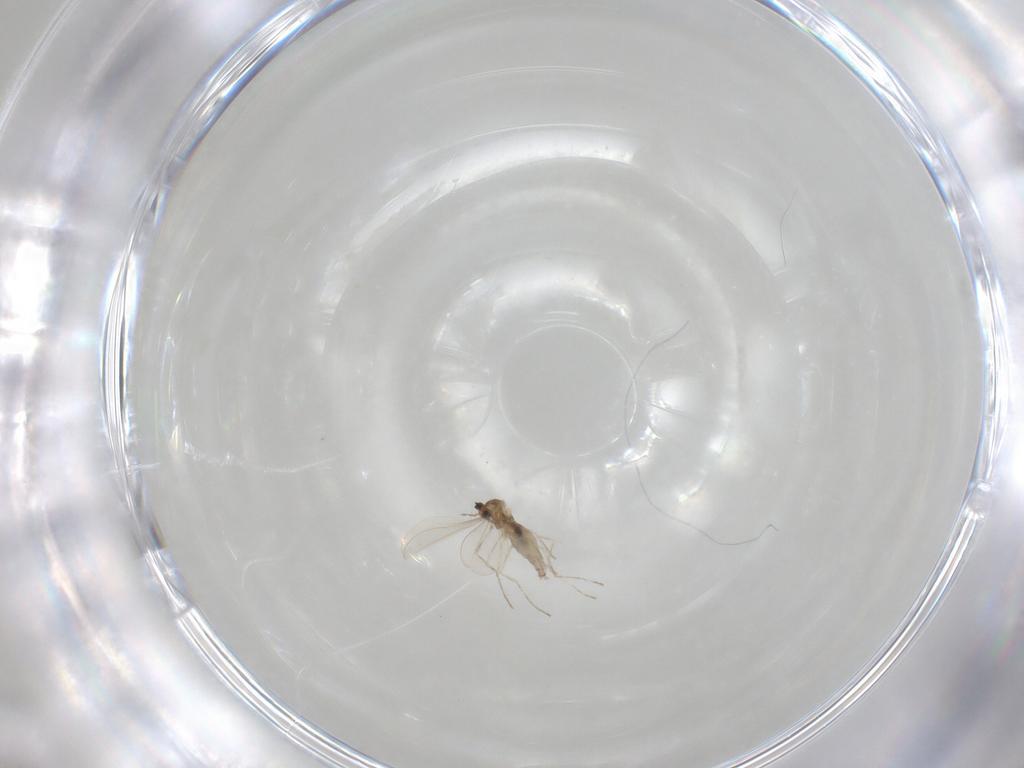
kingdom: Animalia
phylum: Arthropoda
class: Insecta
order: Diptera
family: Cecidomyiidae
